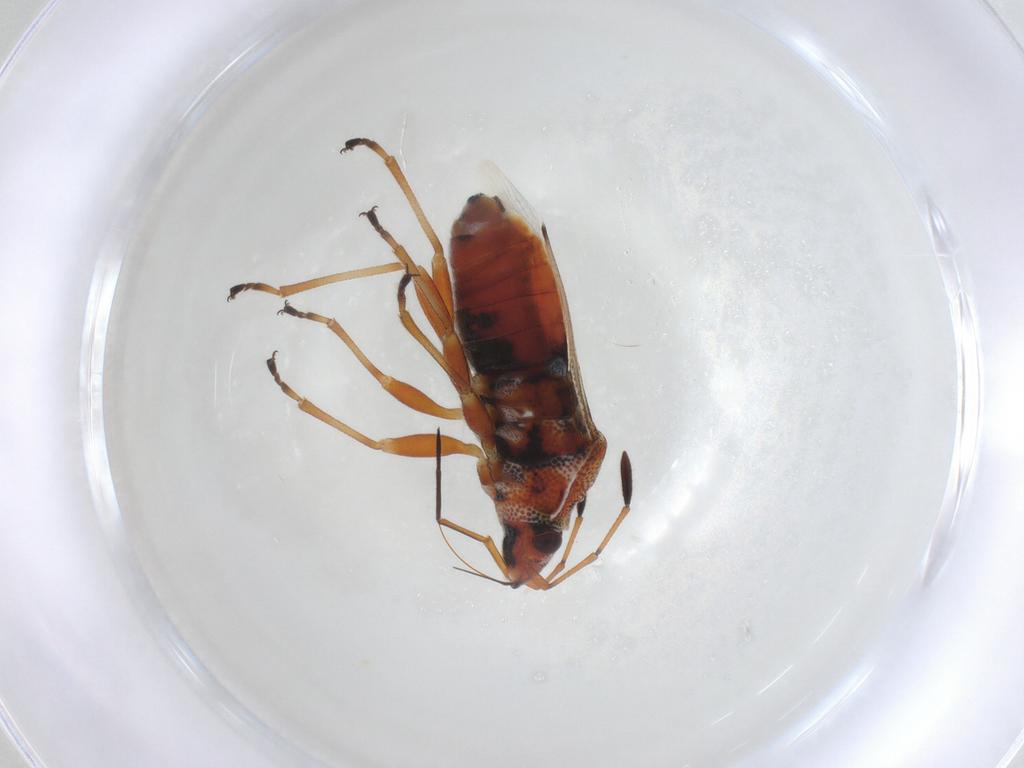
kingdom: Animalia
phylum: Arthropoda
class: Insecta
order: Hemiptera
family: Lygaeidae
